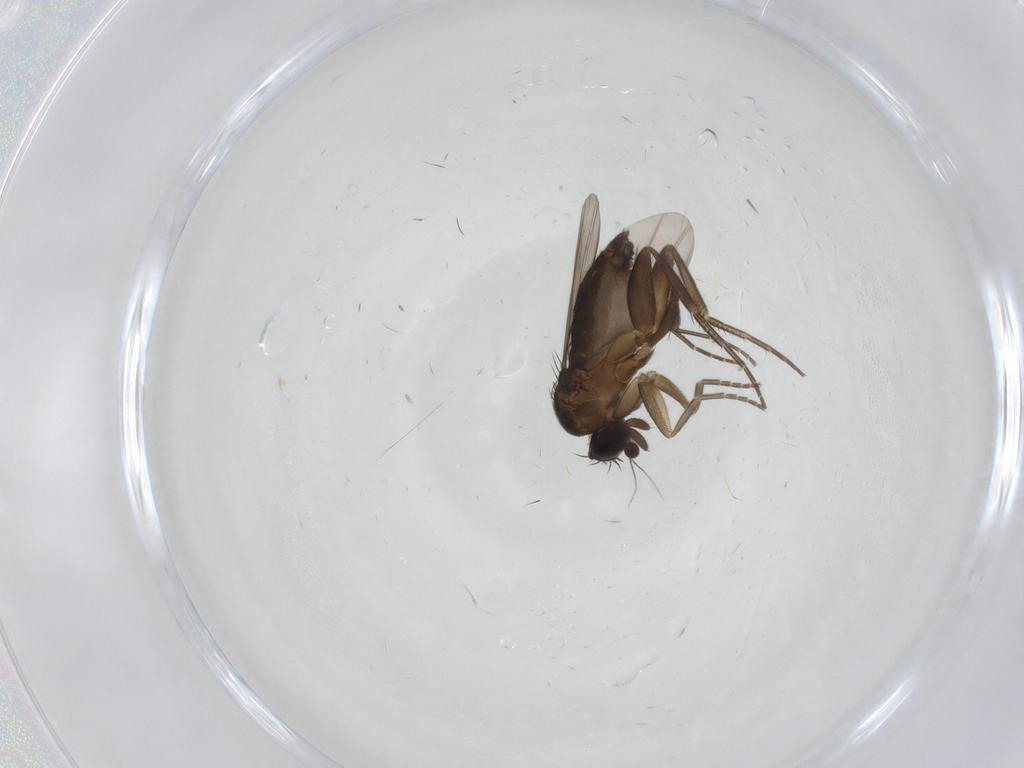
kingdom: Animalia
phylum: Arthropoda
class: Insecta
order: Diptera
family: Phoridae
